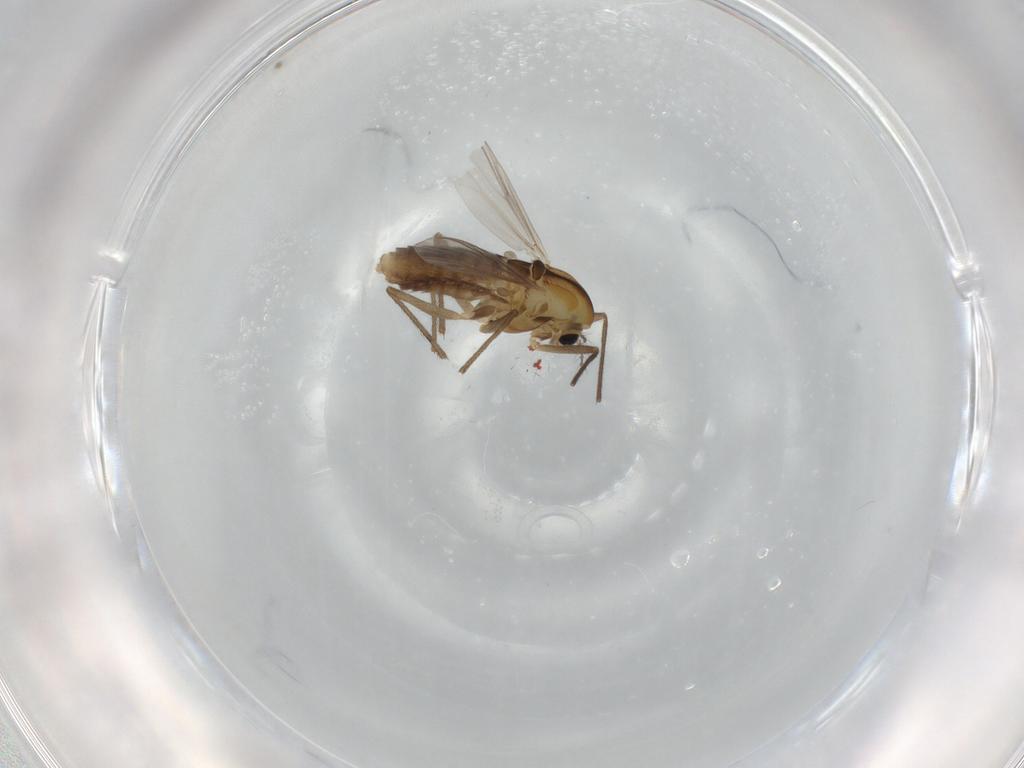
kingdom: Animalia
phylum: Arthropoda
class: Insecta
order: Diptera
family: Chironomidae
